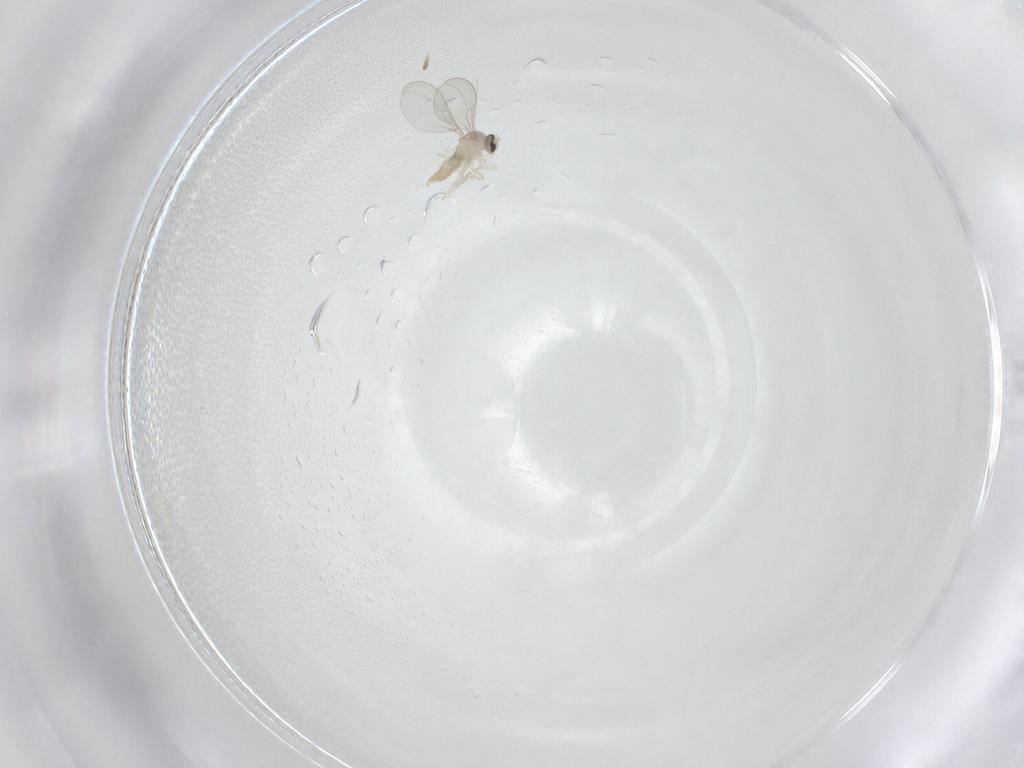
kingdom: Animalia
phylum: Arthropoda
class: Insecta
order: Diptera
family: Cecidomyiidae
